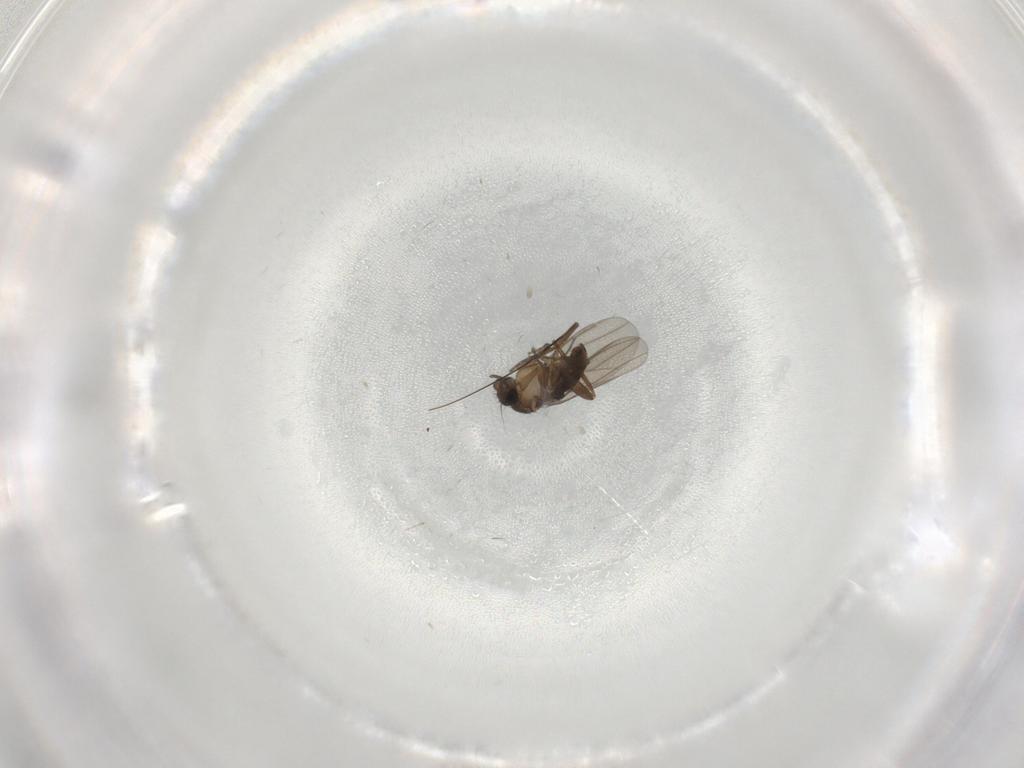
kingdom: Animalia
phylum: Arthropoda
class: Insecta
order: Diptera
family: Phoridae
